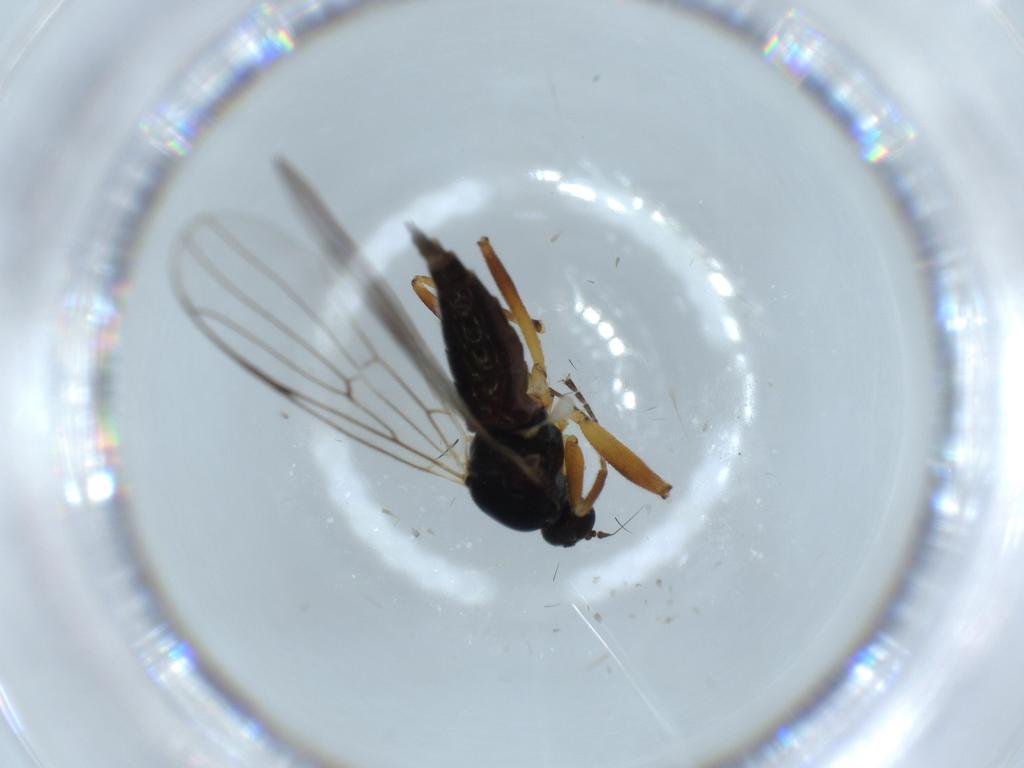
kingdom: Animalia
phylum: Arthropoda
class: Insecta
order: Diptera
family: Hybotidae
